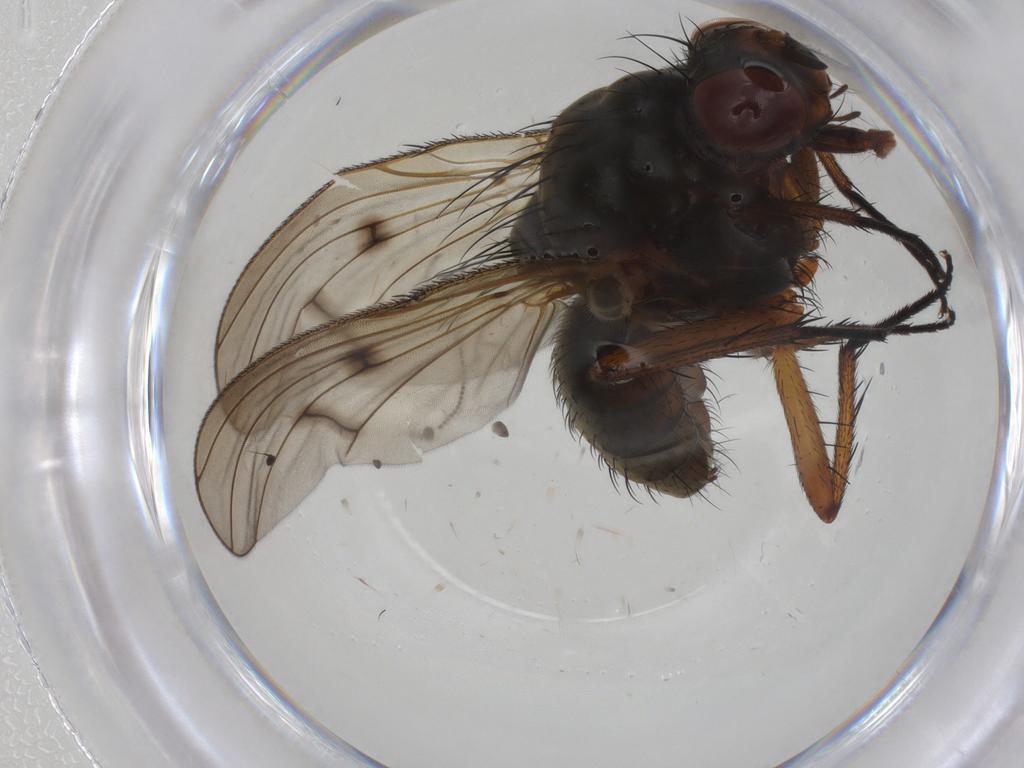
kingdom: Animalia
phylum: Arthropoda
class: Insecta
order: Diptera
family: Anthomyiidae
